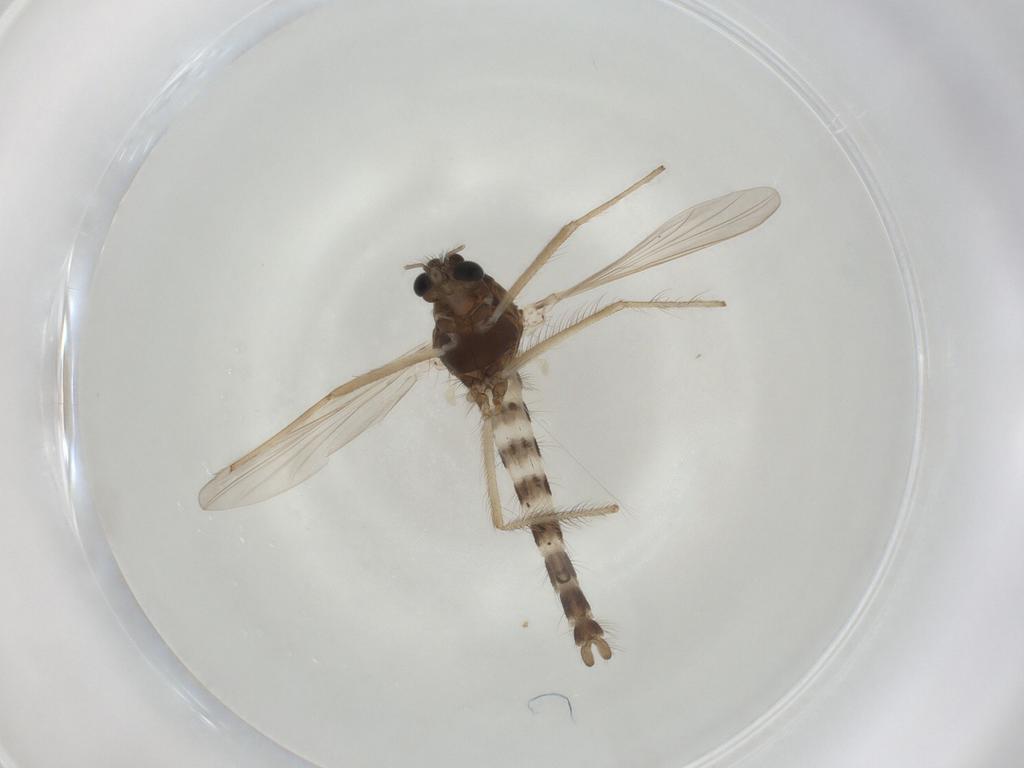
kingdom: Animalia
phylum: Arthropoda
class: Insecta
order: Diptera
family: Chironomidae
